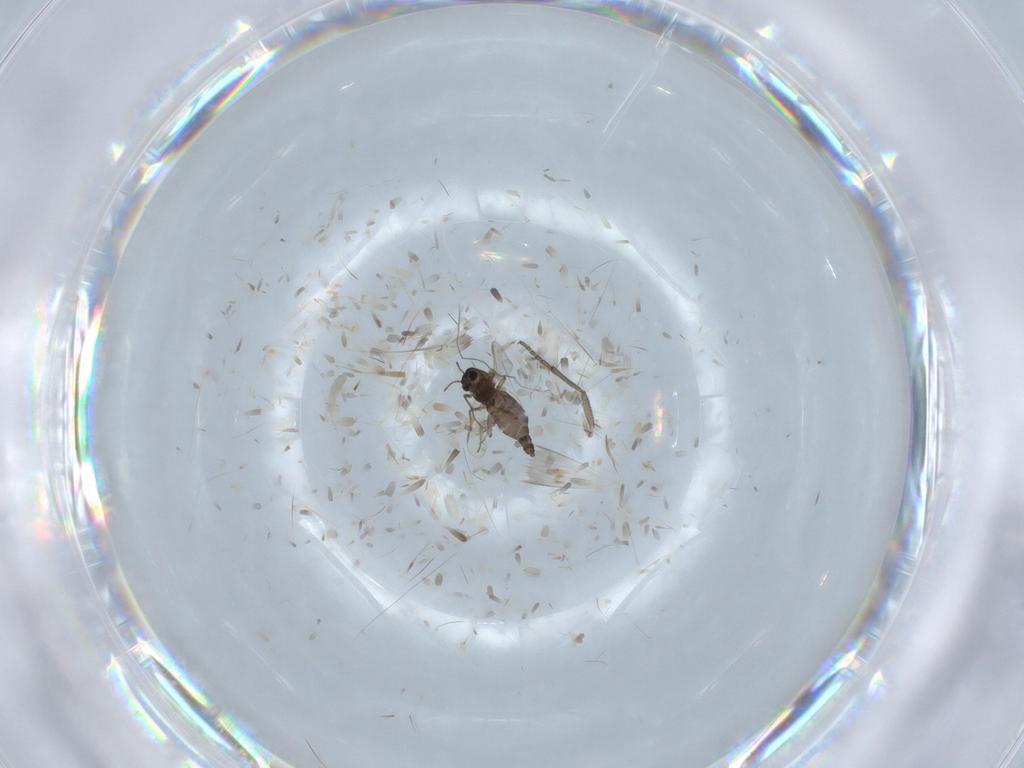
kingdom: Animalia
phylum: Arthropoda
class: Insecta
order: Diptera
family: Chironomidae
